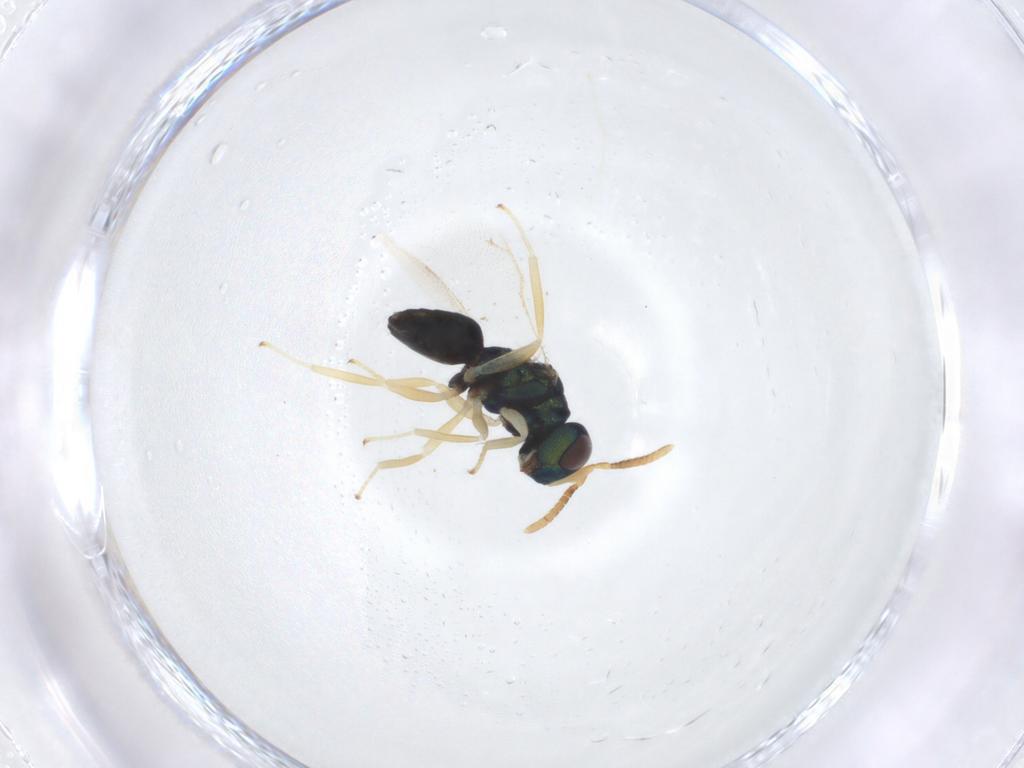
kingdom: Animalia
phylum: Arthropoda
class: Insecta
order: Hymenoptera
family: Pteromalidae
